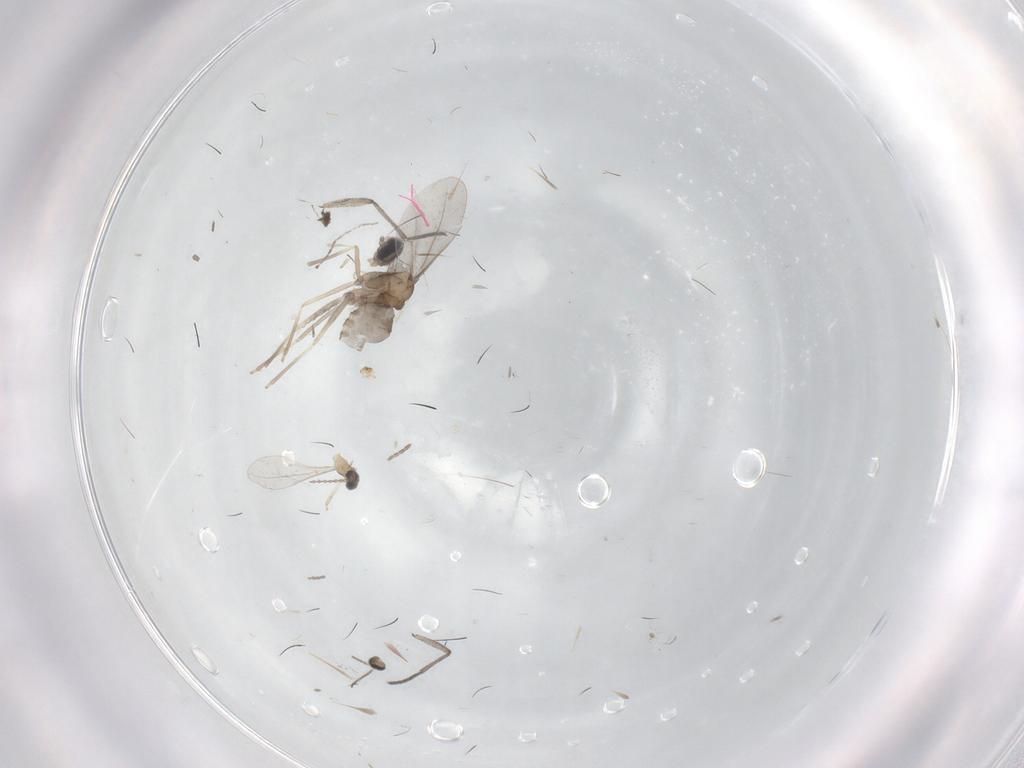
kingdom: Animalia
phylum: Arthropoda
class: Insecta
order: Diptera
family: Cecidomyiidae
